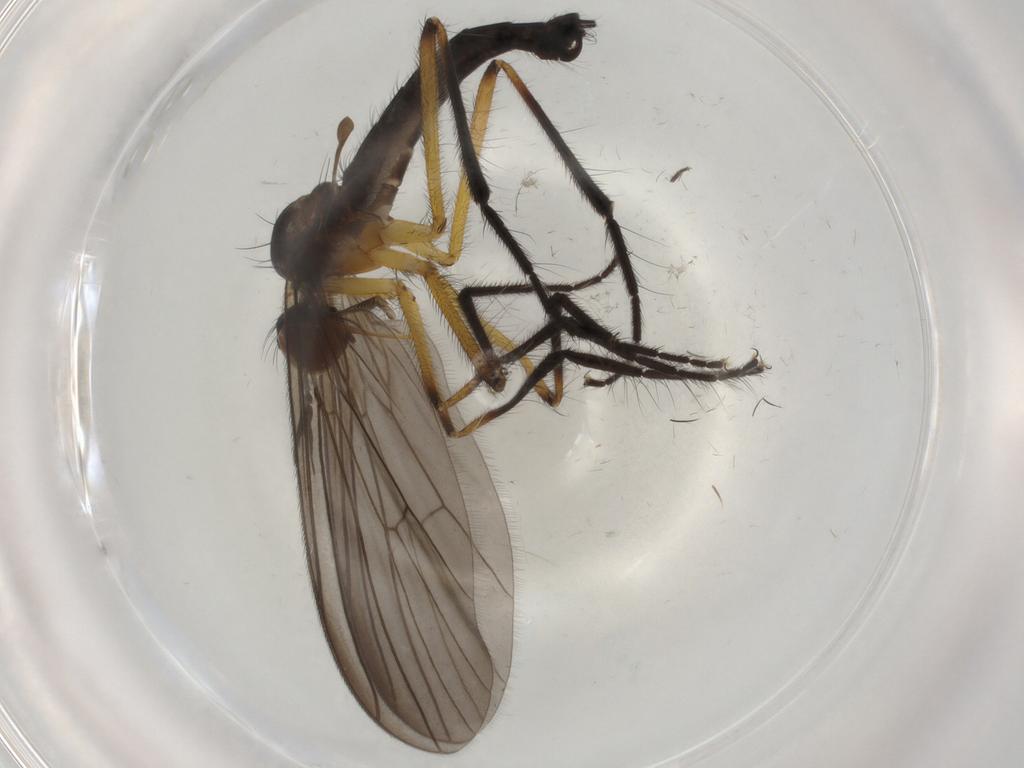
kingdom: Animalia
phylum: Arthropoda
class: Insecta
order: Diptera
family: Empididae
